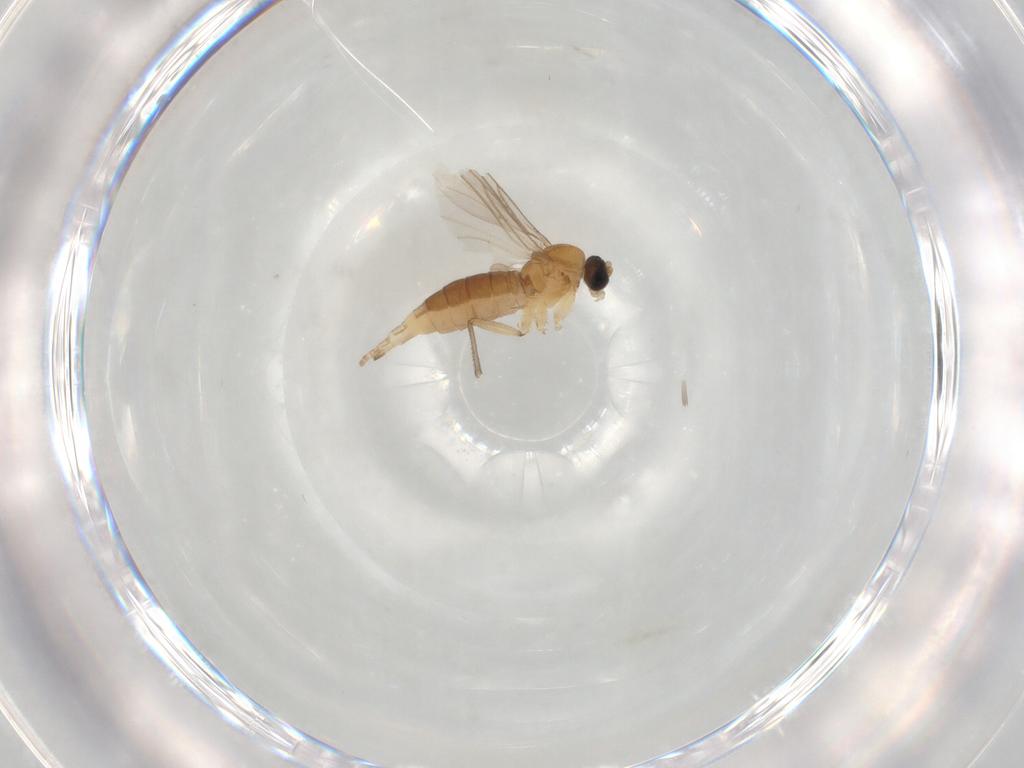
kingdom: Animalia
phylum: Arthropoda
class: Insecta
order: Diptera
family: Sciaridae
